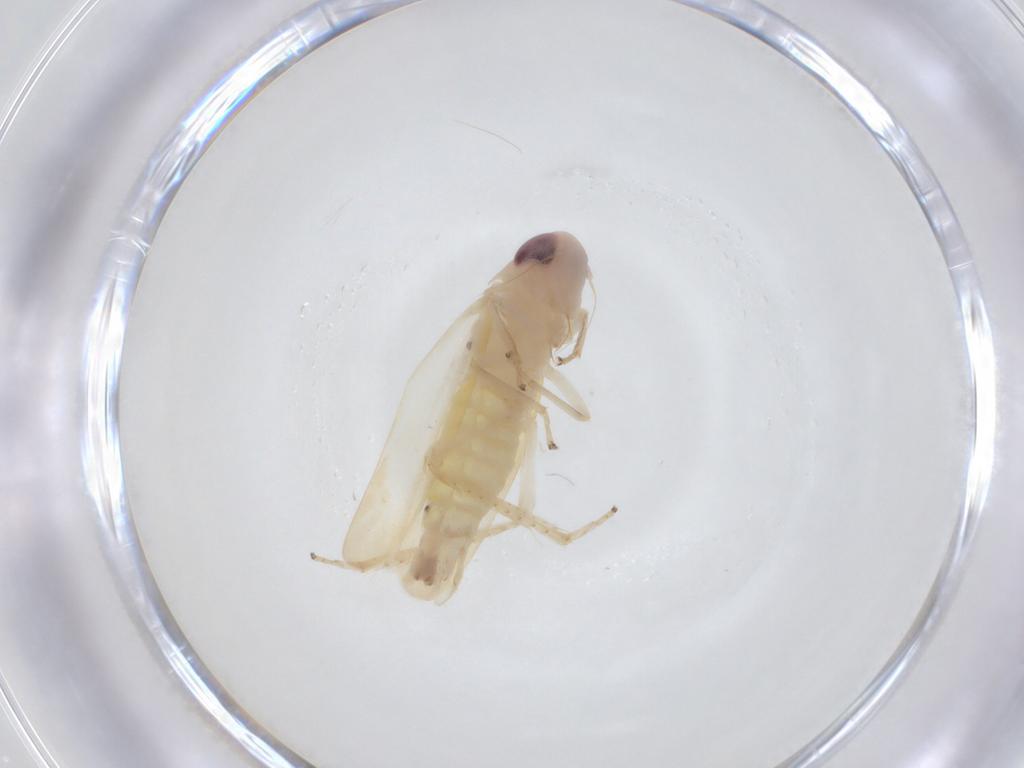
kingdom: Animalia
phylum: Arthropoda
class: Insecta
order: Hemiptera
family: Cicadellidae
